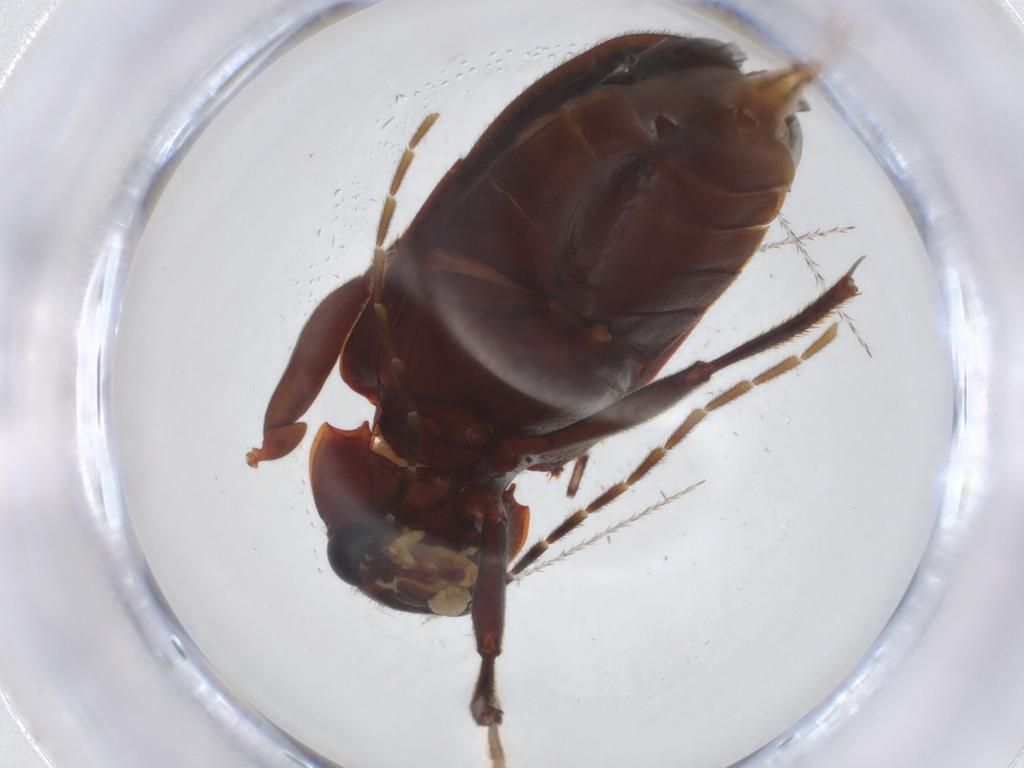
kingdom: Animalia
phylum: Arthropoda
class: Insecta
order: Coleoptera
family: Ptilodactylidae
